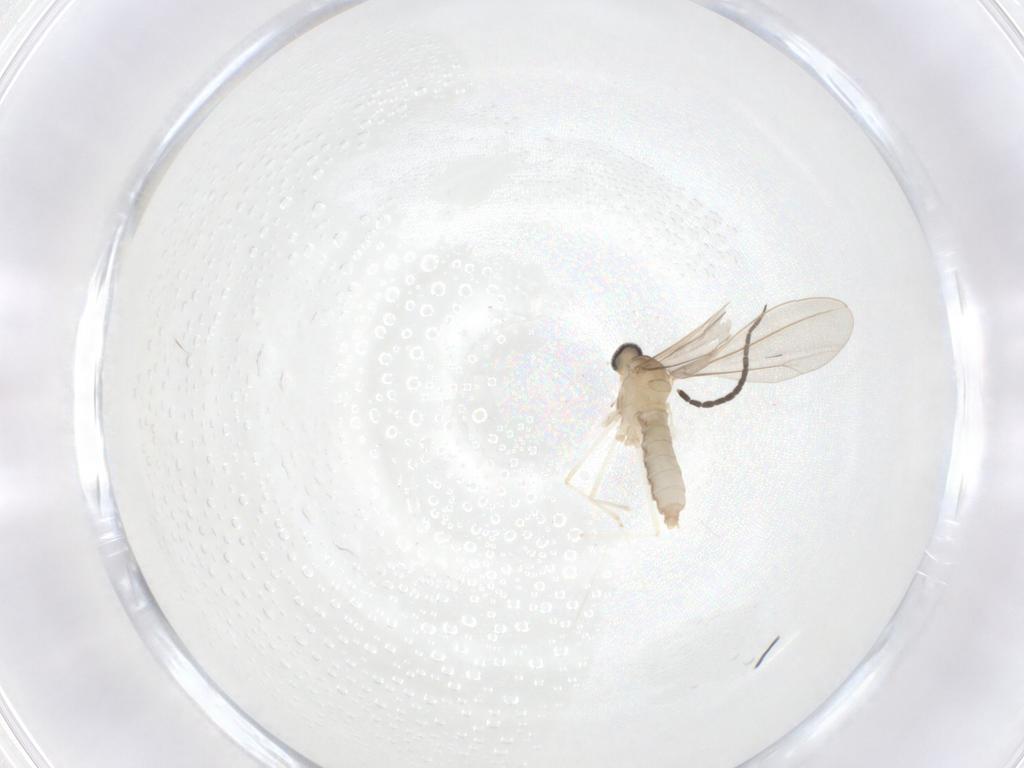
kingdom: Animalia
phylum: Arthropoda
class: Insecta
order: Diptera
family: Cecidomyiidae
